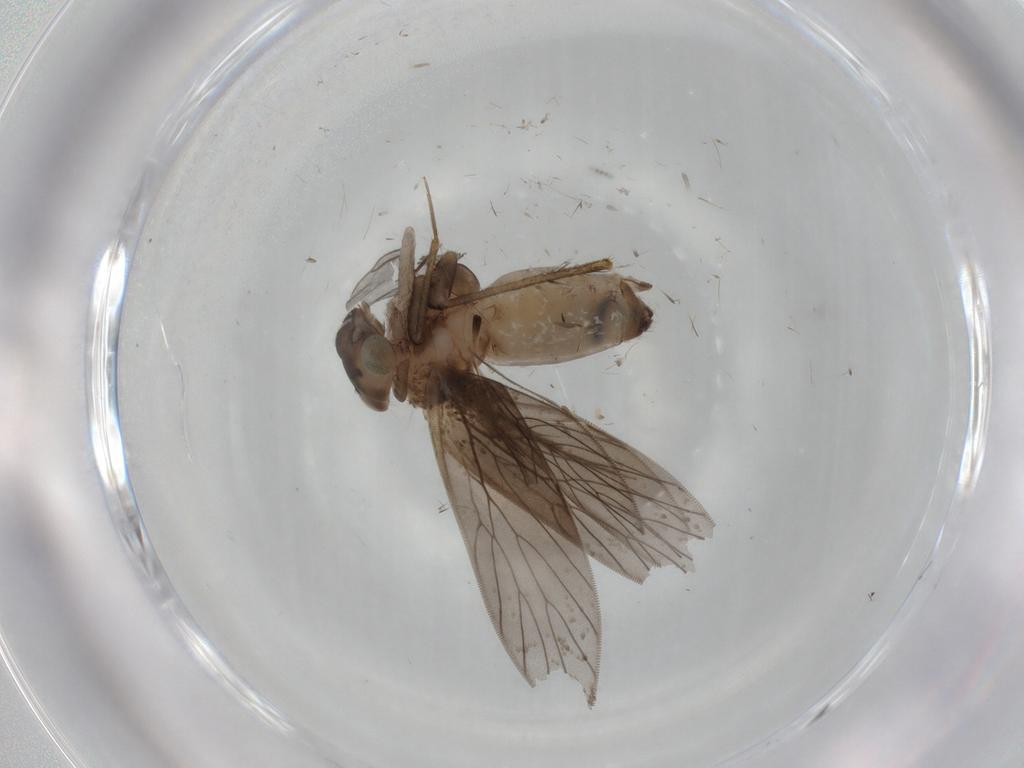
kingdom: Animalia
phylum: Arthropoda
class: Insecta
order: Psocodea
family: Lepidopsocidae
